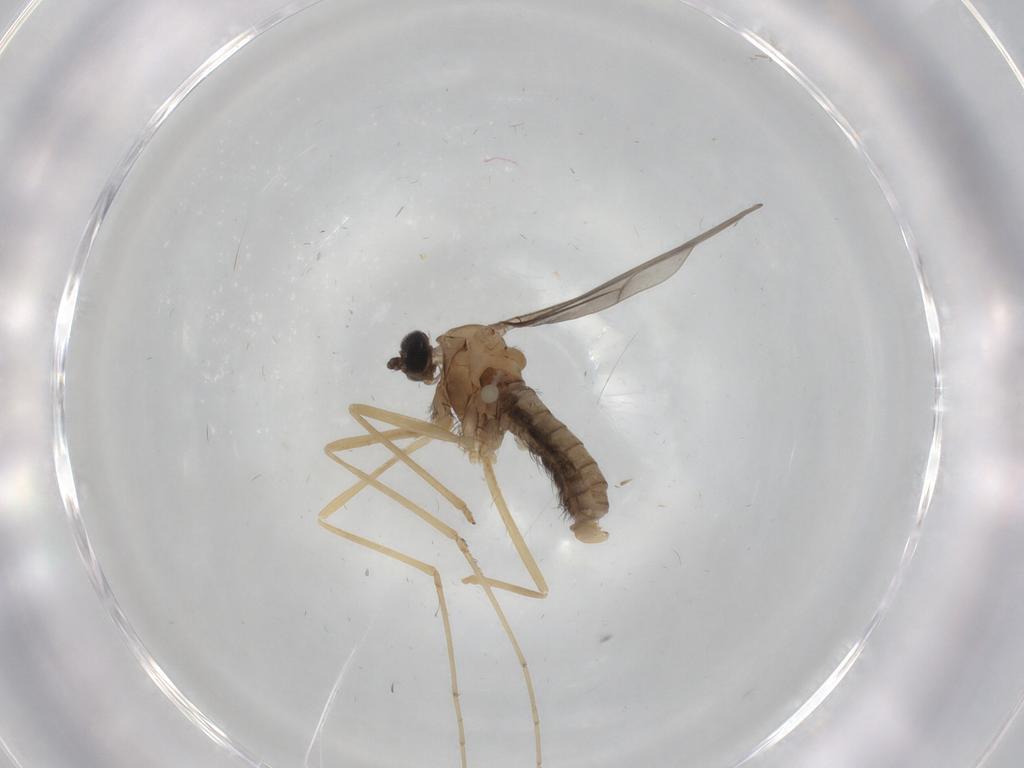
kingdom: Animalia
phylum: Arthropoda
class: Insecta
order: Diptera
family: Cecidomyiidae
